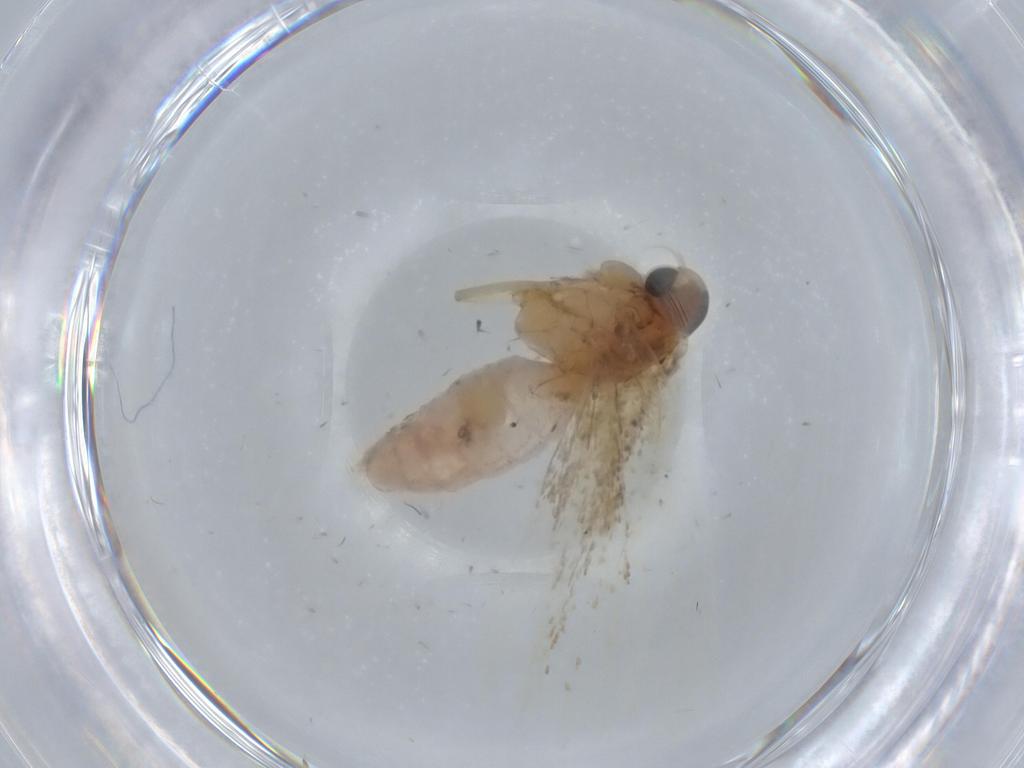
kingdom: Animalia
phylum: Arthropoda
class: Insecta
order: Lepidoptera
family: Gelechiidae
